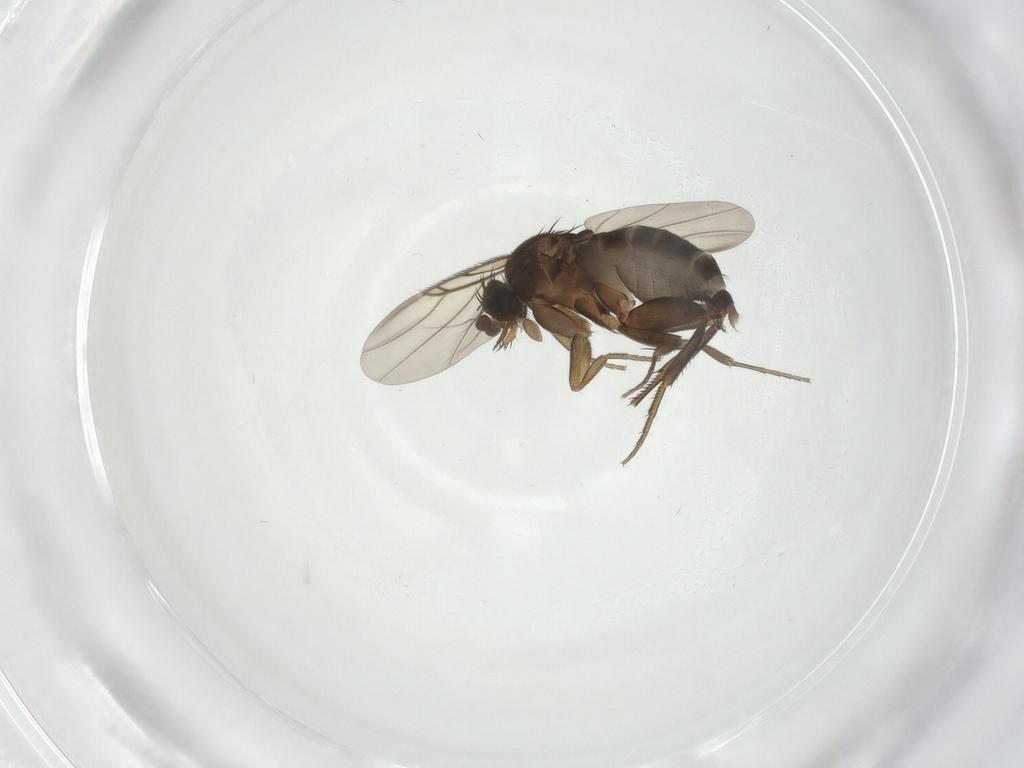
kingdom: Animalia
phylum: Arthropoda
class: Insecta
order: Diptera
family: Phoridae
